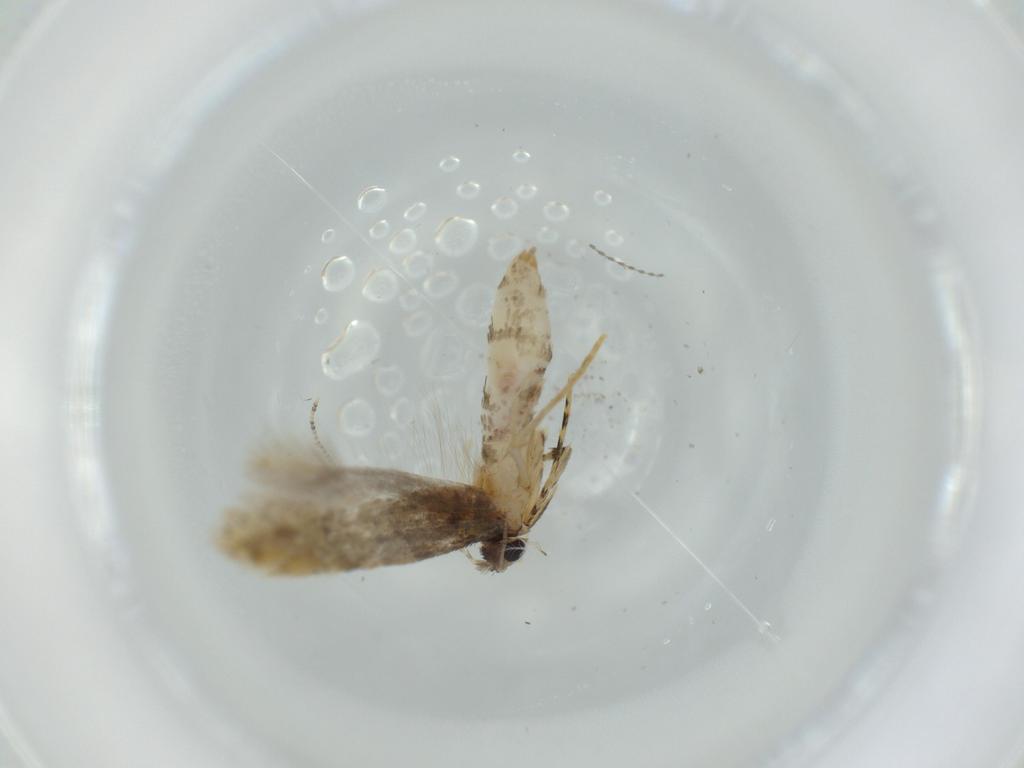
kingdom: Animalia
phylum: Arthropoda
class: Insecta
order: Lepidoptera
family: Tineidae
